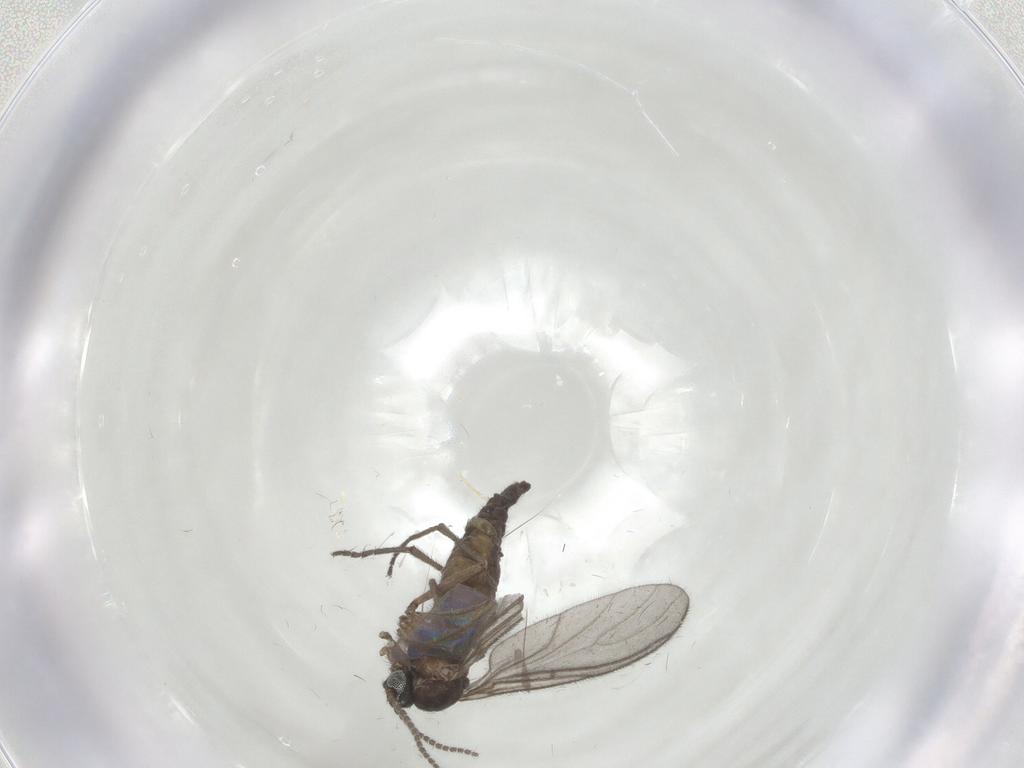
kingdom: Animalia
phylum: Arthropoda
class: Insecta
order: Diptera
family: Sciaridae
